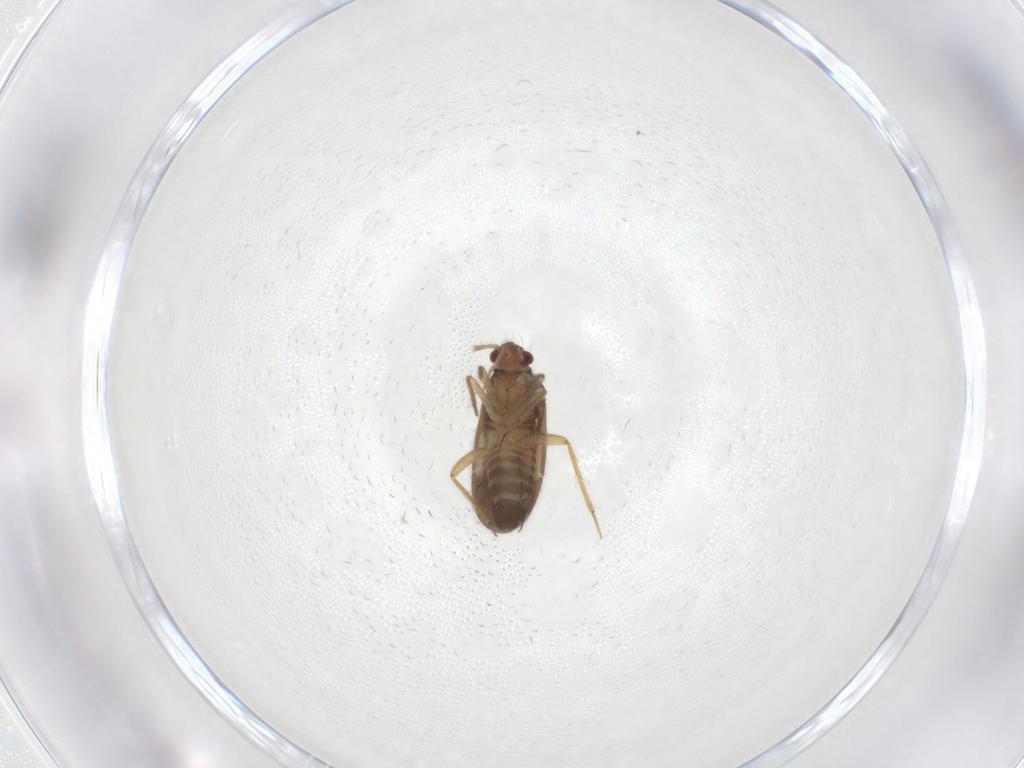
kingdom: Animalia
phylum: Arthropoda
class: Insecta
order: Hemiptera
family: Ceratocombidae
